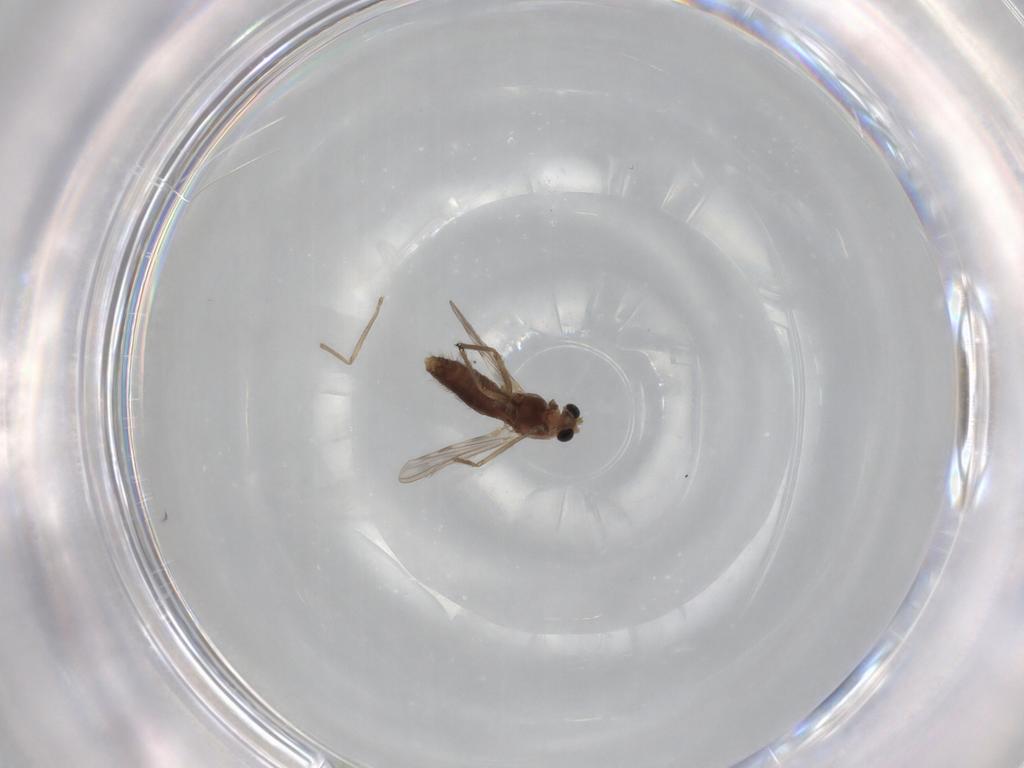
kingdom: Animalia
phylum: Arthropoda
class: Insecta
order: Diptera
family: Chironomidae
